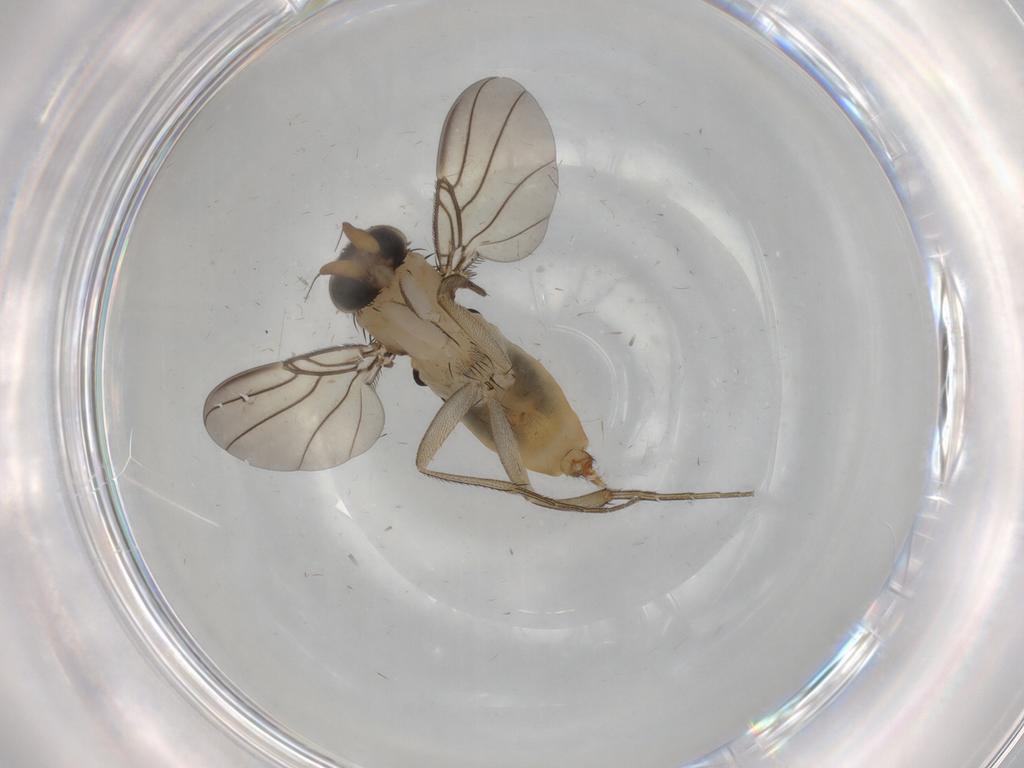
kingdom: Animalia
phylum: Arthropoda
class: Insecta
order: Diptera
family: Phoridae
